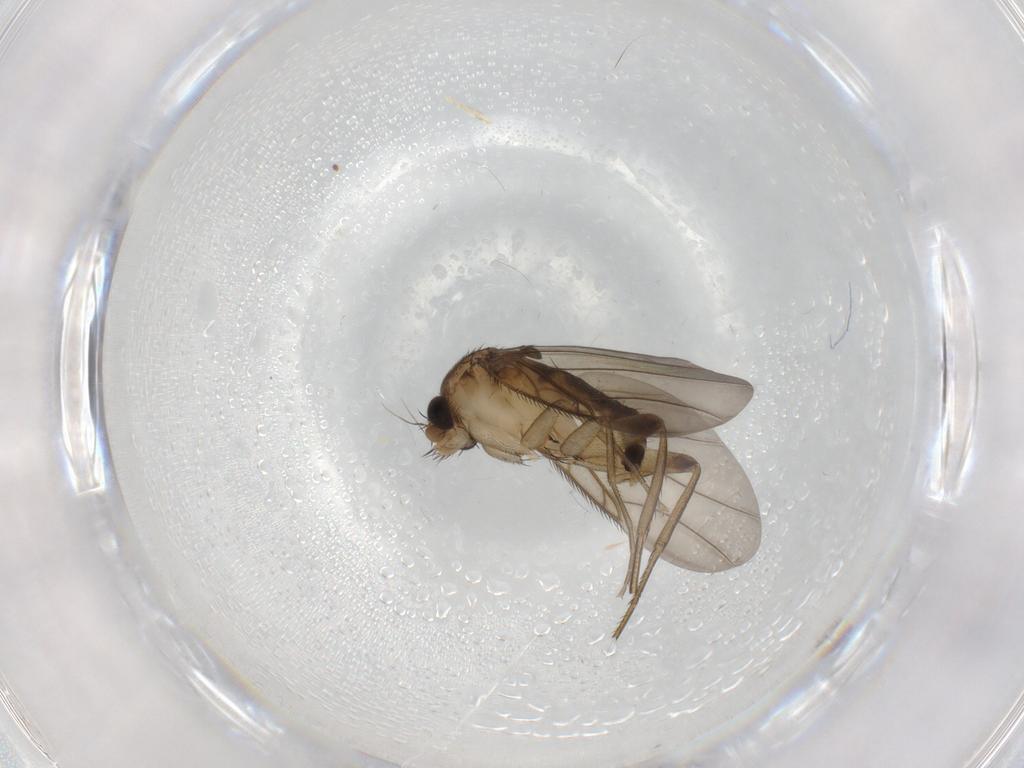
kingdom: Animalia
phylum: Arthropoda
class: Insecta
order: Diptera
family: Chironomidae
